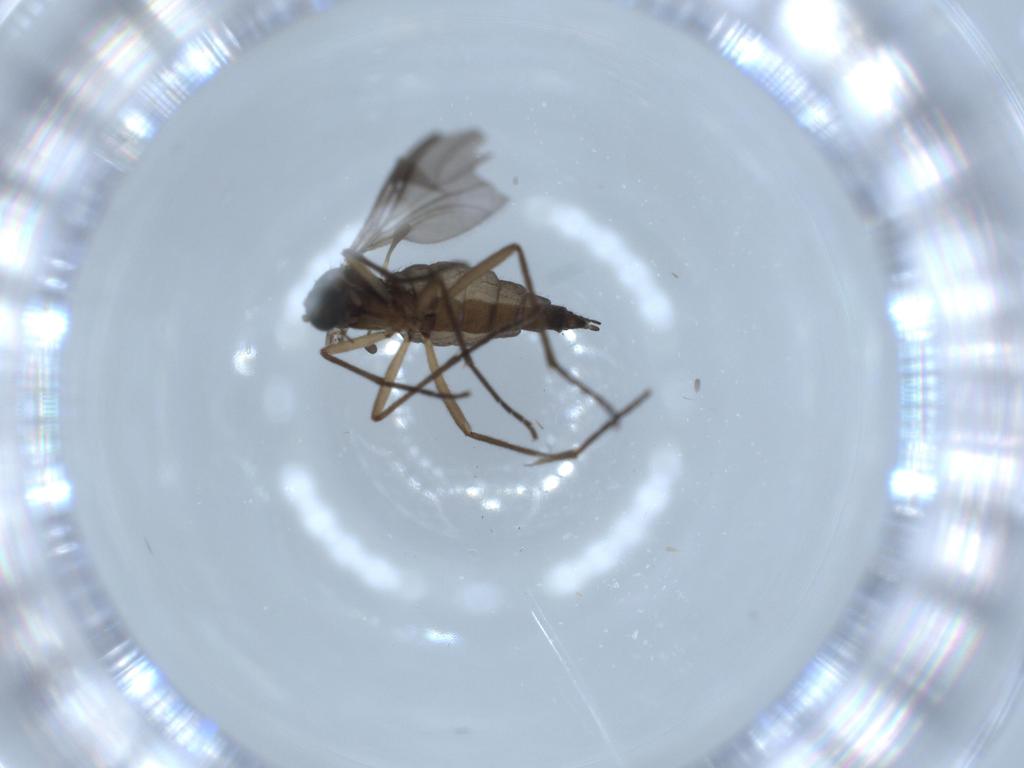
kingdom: Animalia
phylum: Arthropoda
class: Insecta
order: Diptera
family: Sciaridae
